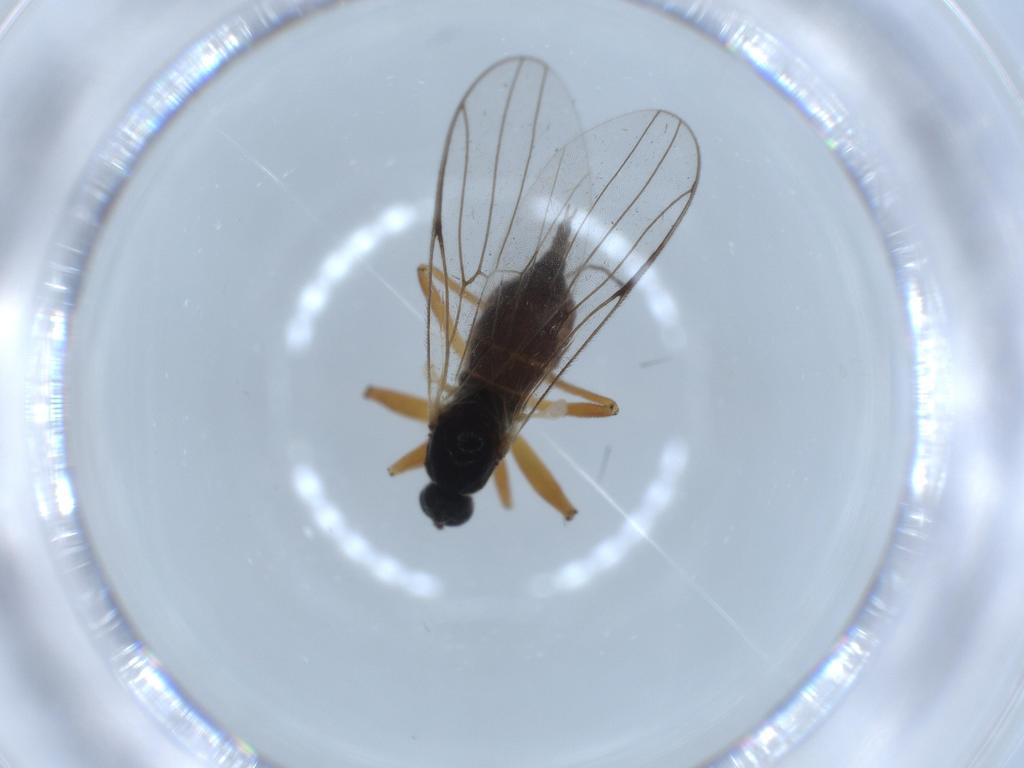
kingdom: Animalia
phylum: Arthropoda
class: Insecta
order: Diptera
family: Hybotidae
